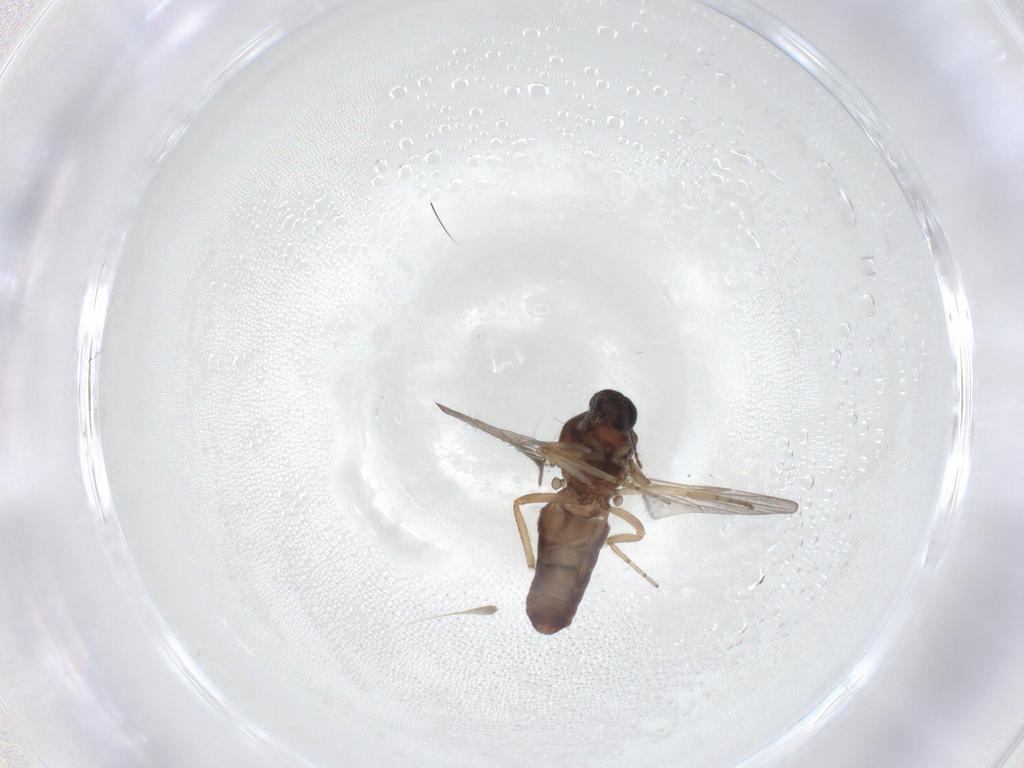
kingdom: Animalia
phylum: Arthropoda
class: Insecta
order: Diptera
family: Ceratopogonidae
